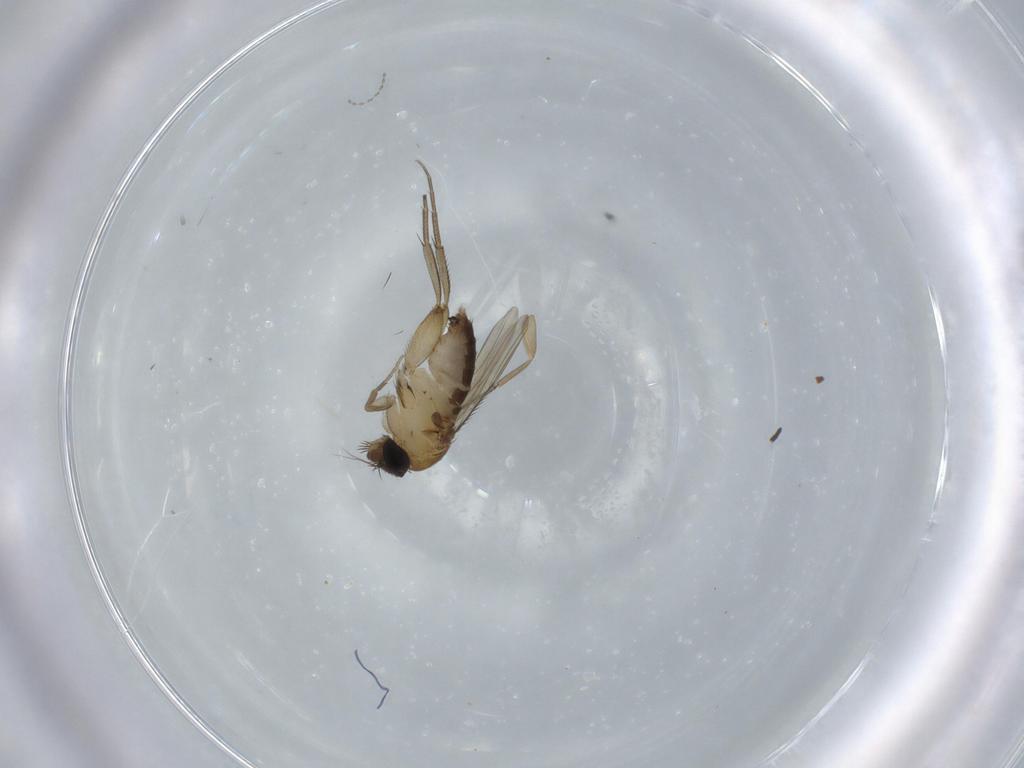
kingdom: Animalia
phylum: Arthropoda
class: Insecta
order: Diptera
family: Phoridae
